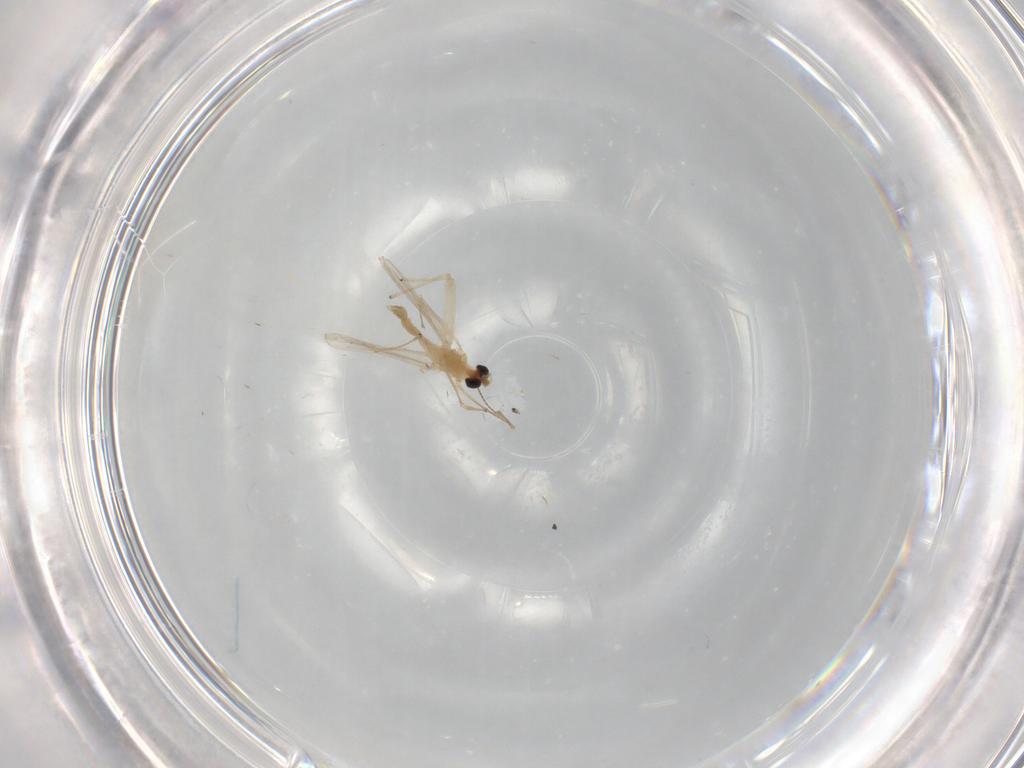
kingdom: Animalia
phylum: Arthropoda
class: Insecta
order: Diptera
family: Chironomidae
